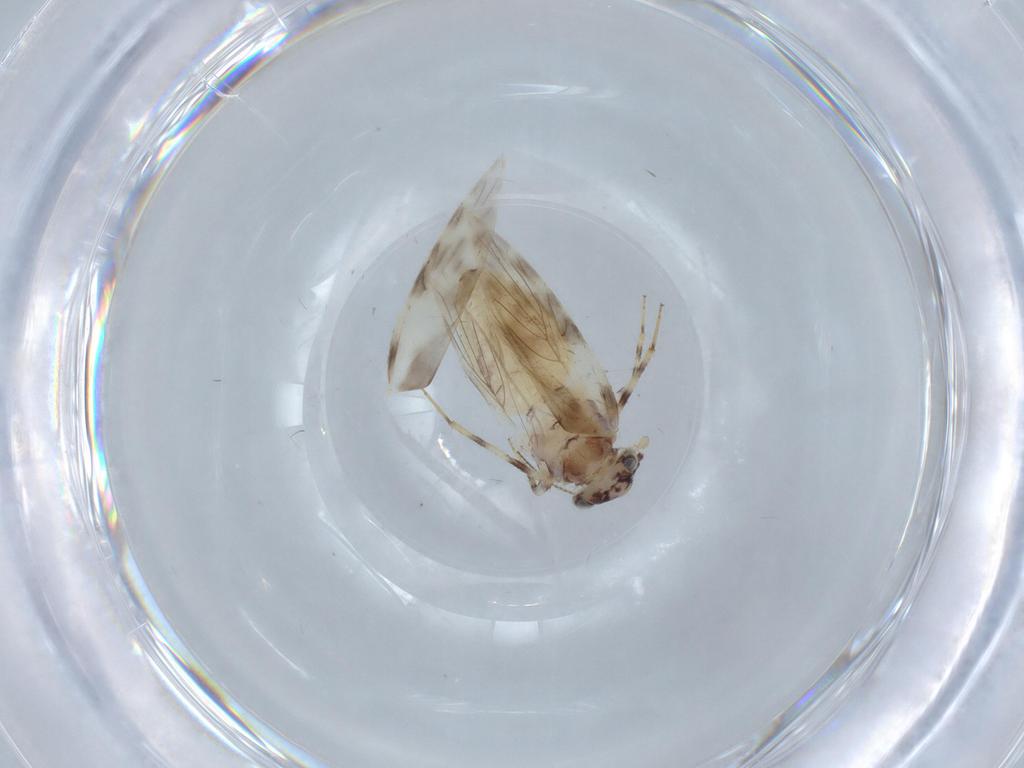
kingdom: Animalia
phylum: Arthropoda
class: Insecta
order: Psocodea
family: Lepidopsocidae
